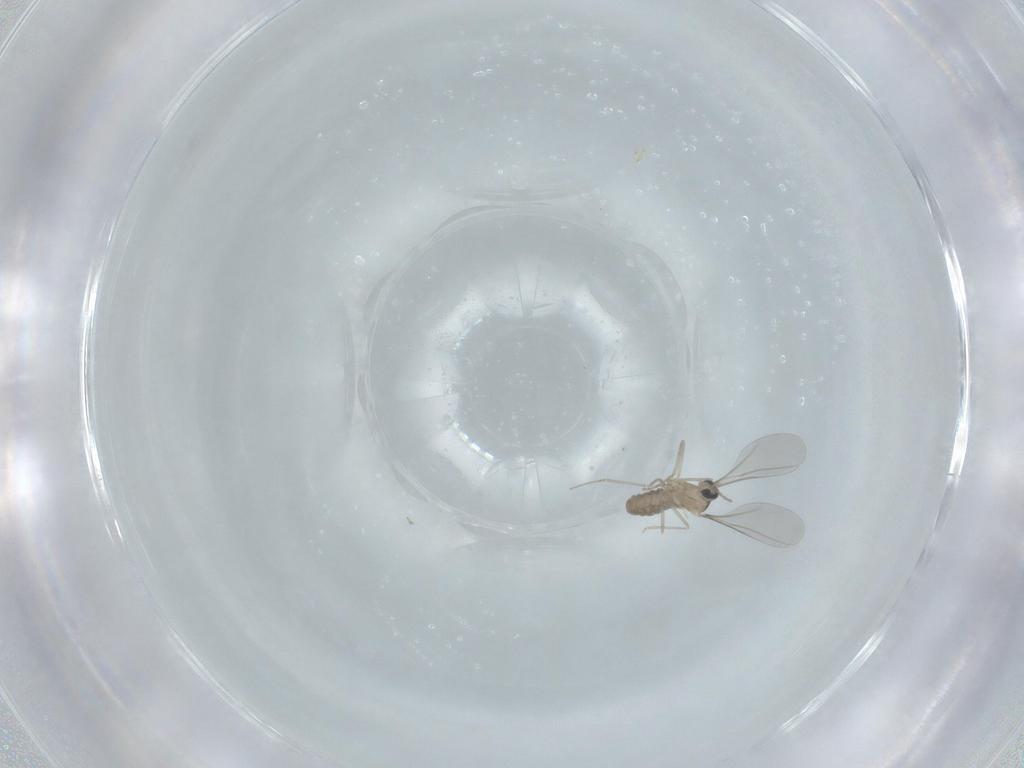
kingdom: Animalia
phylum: Arthropoda
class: Insecta
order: Diptera
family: Cecidomyiidae
